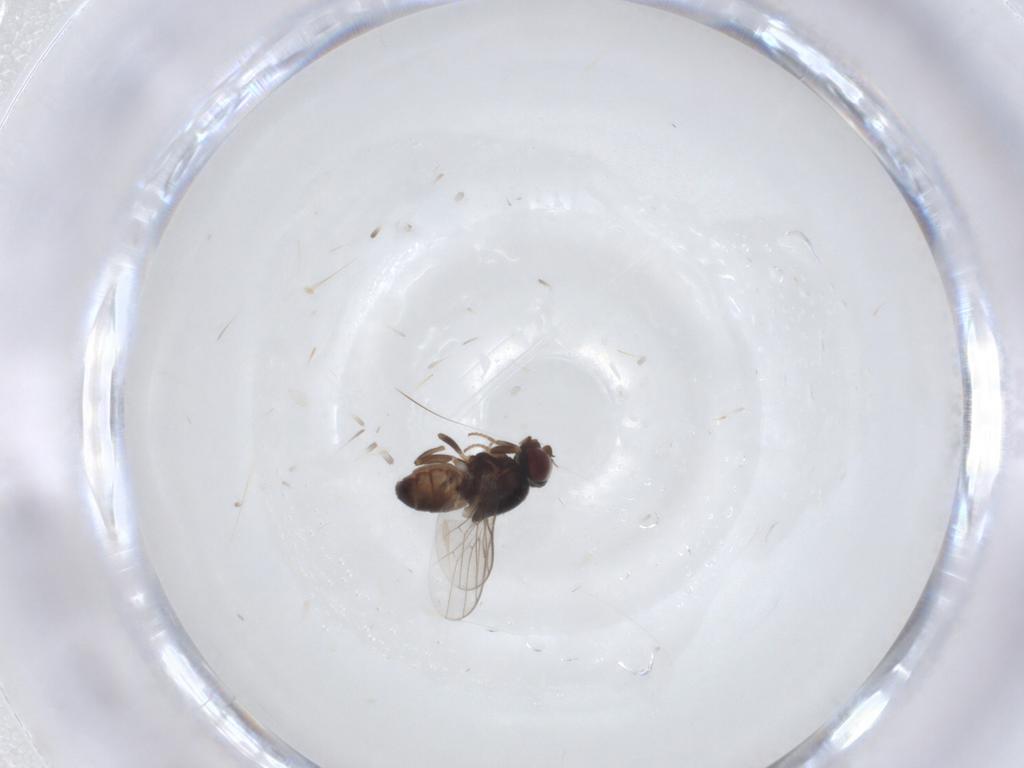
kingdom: Animalia
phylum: Arthropoda
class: Insecta
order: Diptera
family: Chloropidae
